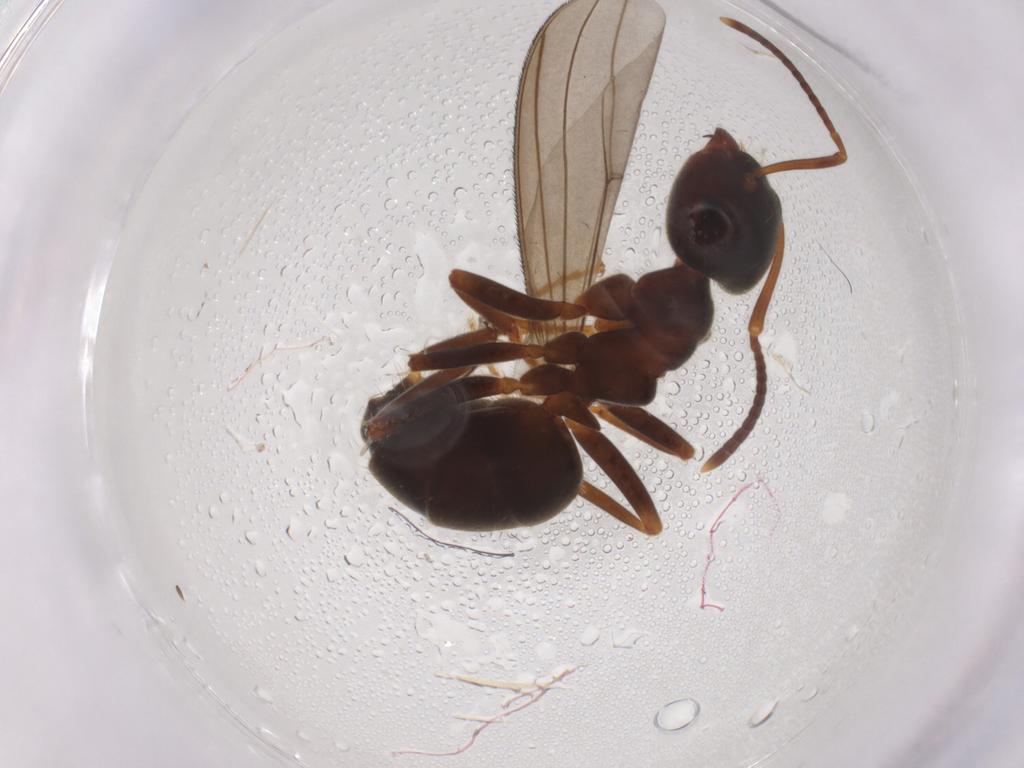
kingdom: Animalia
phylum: Arthropoda
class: Insecta
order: Hymenoptera
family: Formicidae
